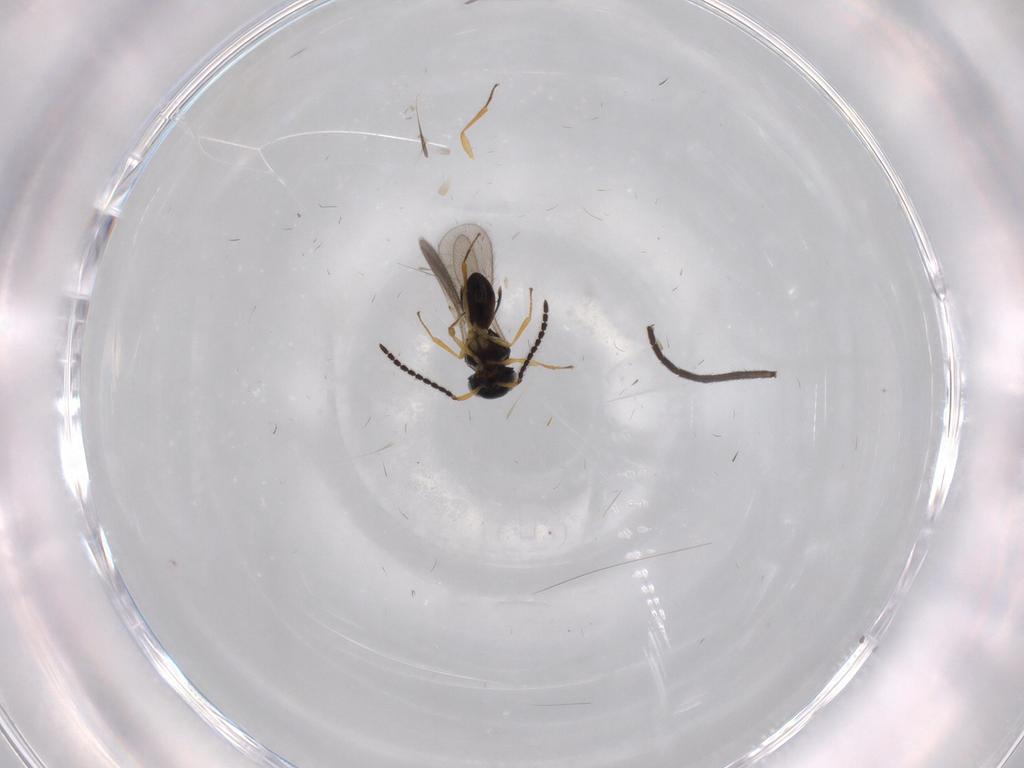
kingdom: Animalia
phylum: Arthropoda
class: Insecta
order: Hymenoptera
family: Scelionidae
